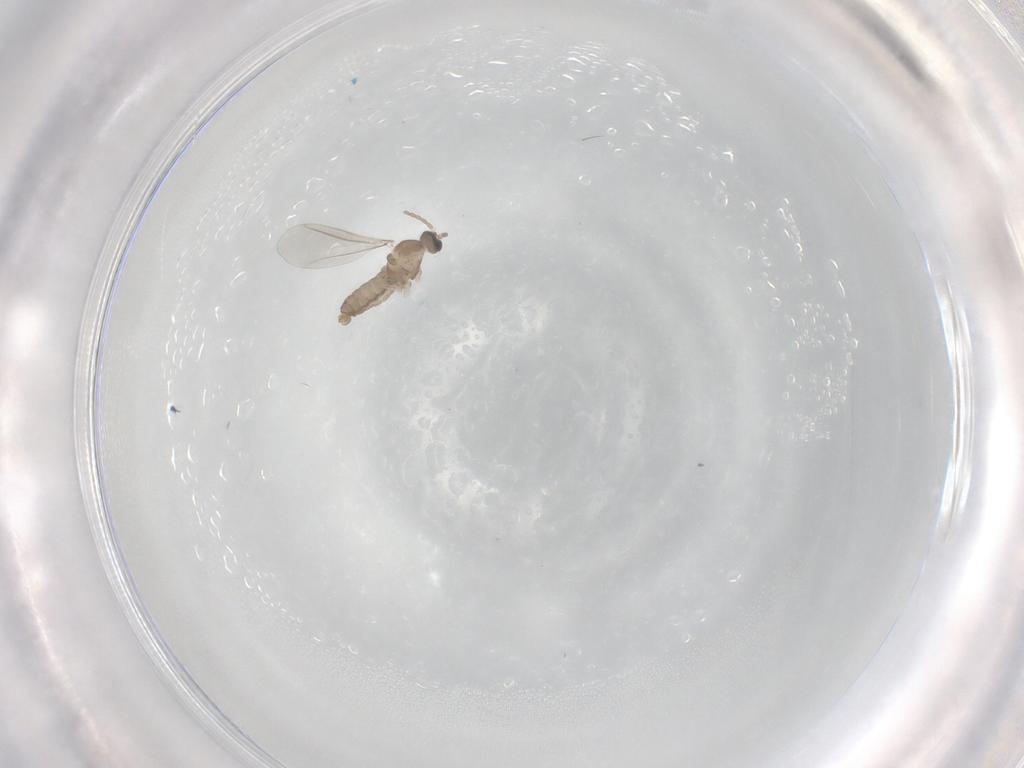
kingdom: Animalia
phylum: Arthropoda
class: Insecta
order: Diptera
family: Cecidomyiidae
